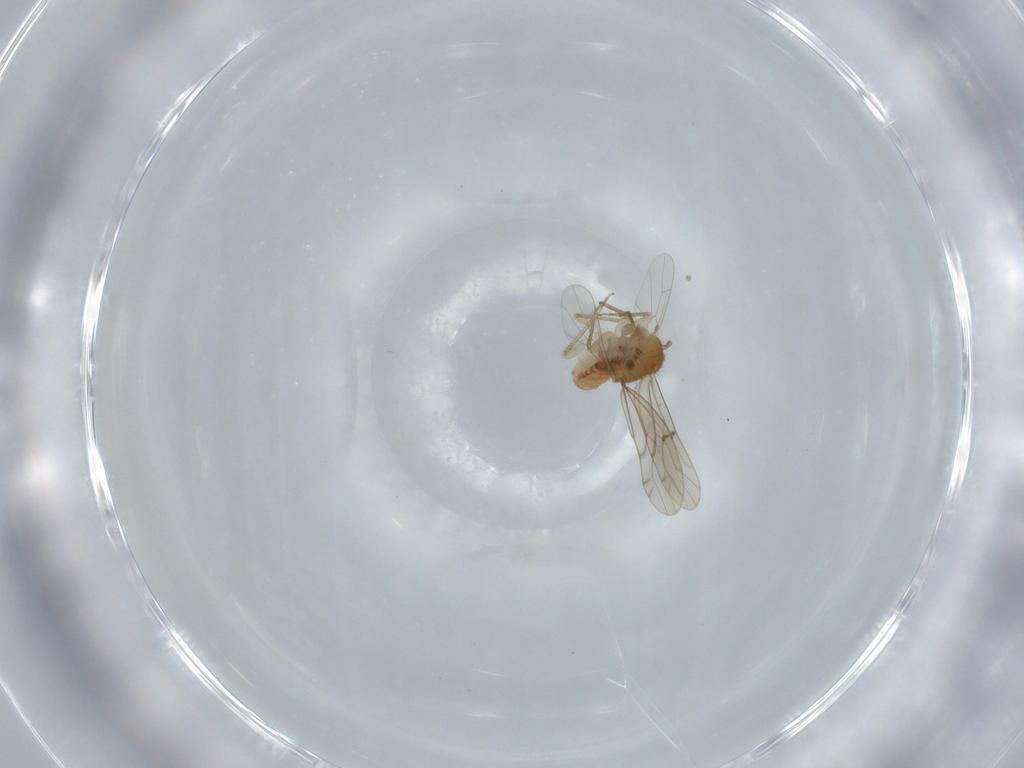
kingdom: Animalia
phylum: Arthropoda
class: Insecta
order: Psocodea
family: Ectopsocidae
